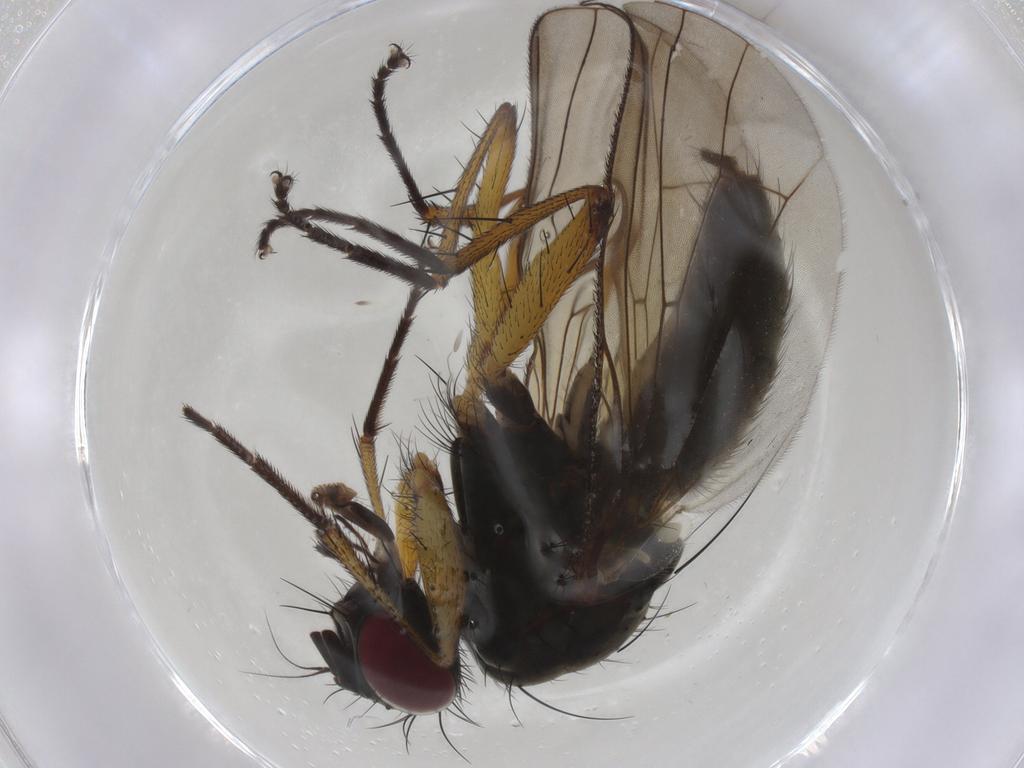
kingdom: Animalia
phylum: Arthropoda
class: Insecta
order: Diptera
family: Muscidae
